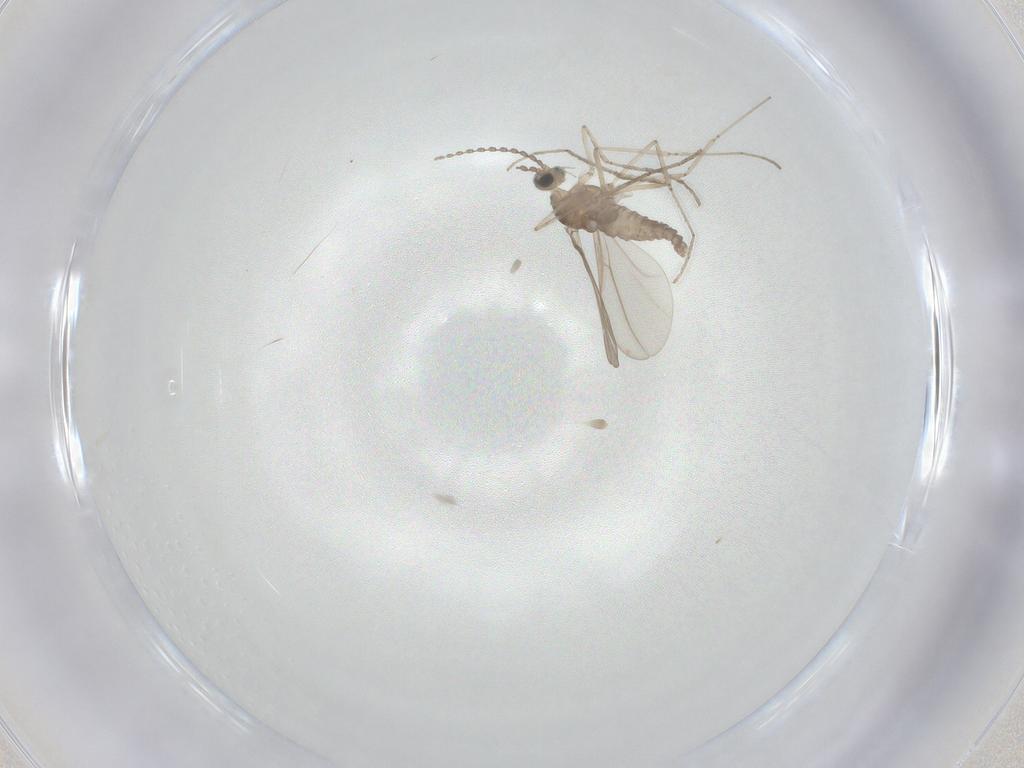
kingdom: Animalia
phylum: Arthropoda
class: Insecta
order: Diptera
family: Cecidomyiidae
